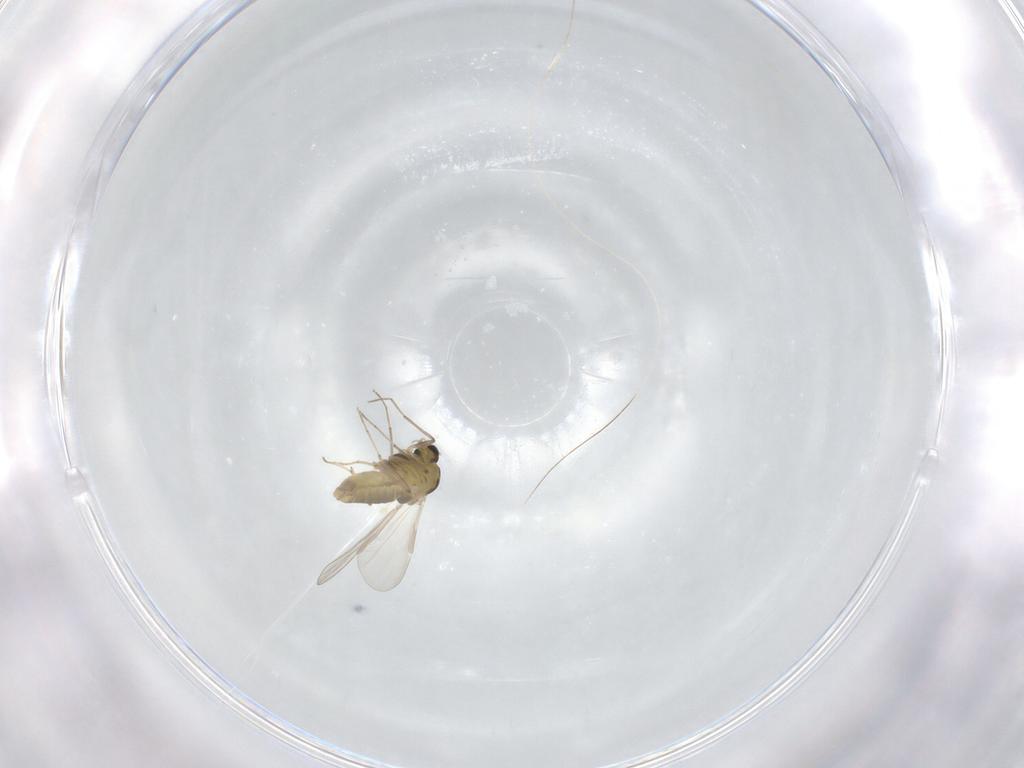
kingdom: Animalia
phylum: Arthropoda
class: Insecta
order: Diptera
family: Chironomidae
